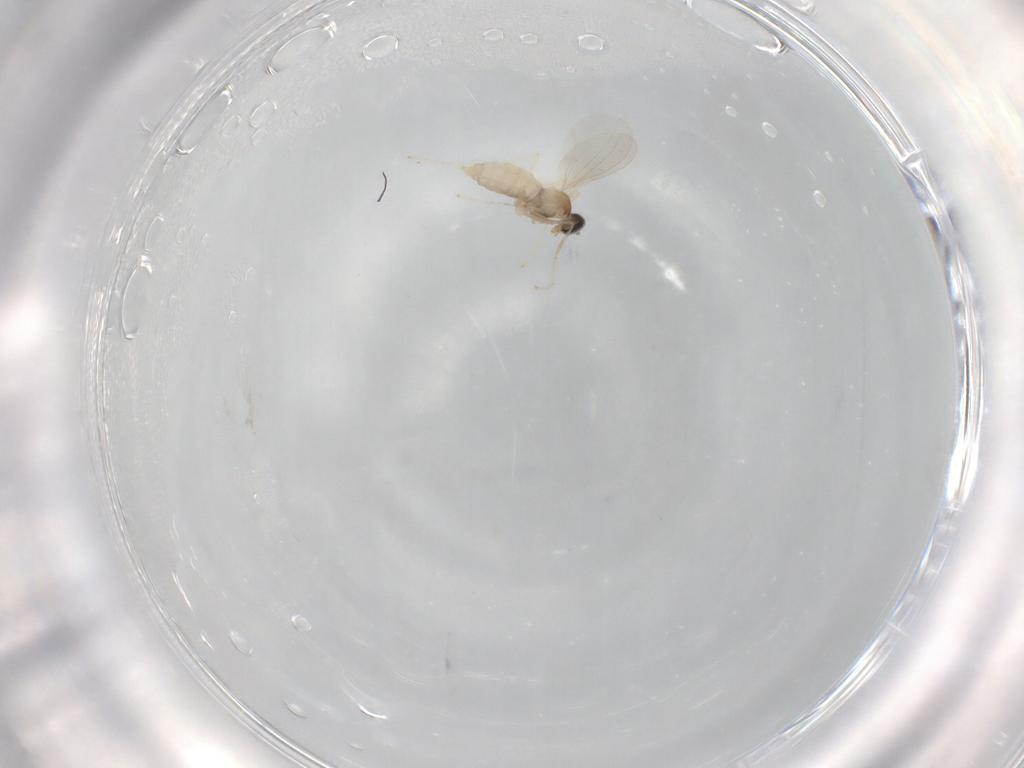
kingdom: Animalia
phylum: Arthropoda
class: Insecta
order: Diptera
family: Cecidomyiidae
